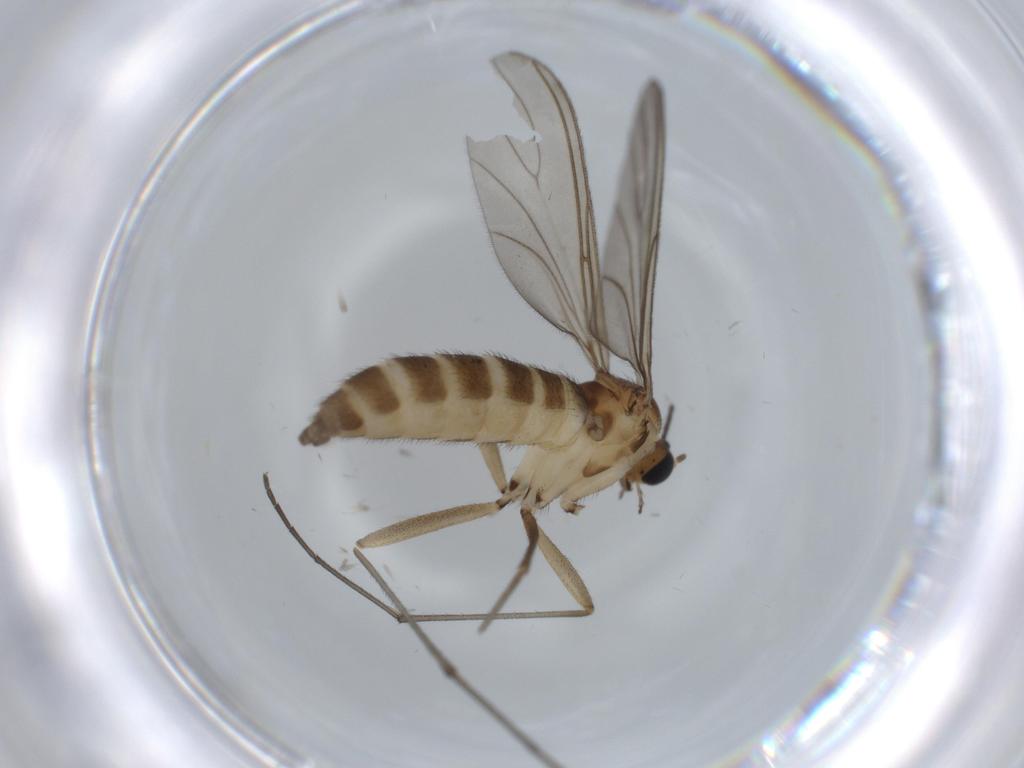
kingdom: Animalia
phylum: Arthropoda
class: Insecta
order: Diptera
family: Sciaridae
